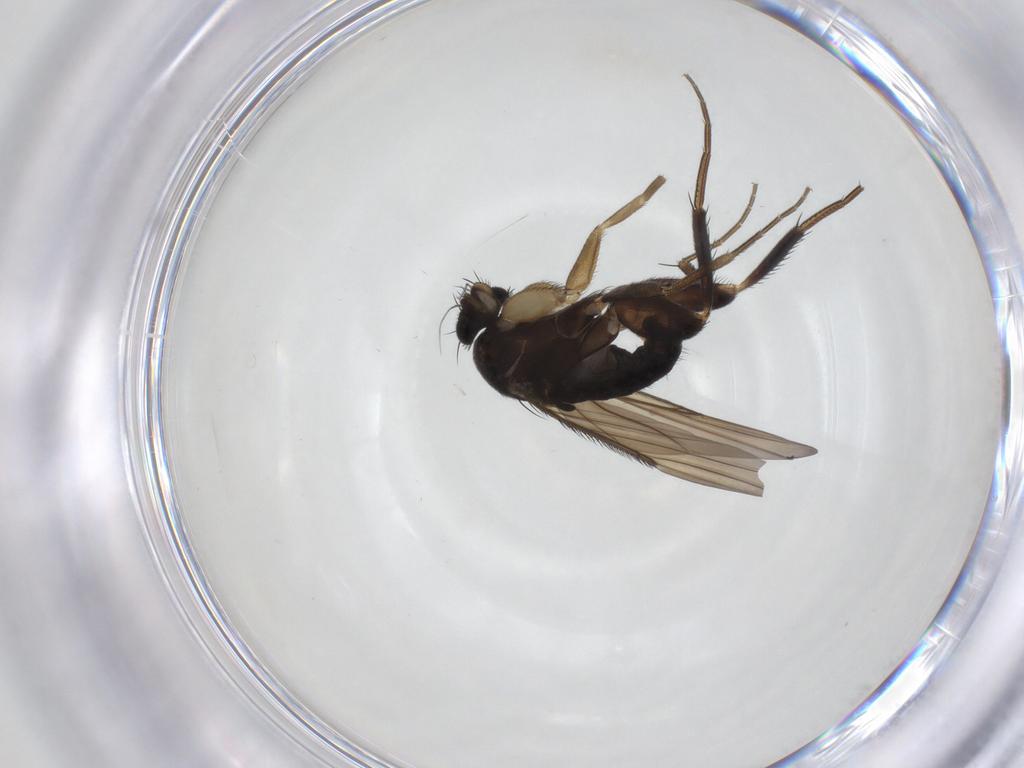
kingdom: Animalia
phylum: Arthropoda
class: Insecta
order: Diptera
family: Phoridae
